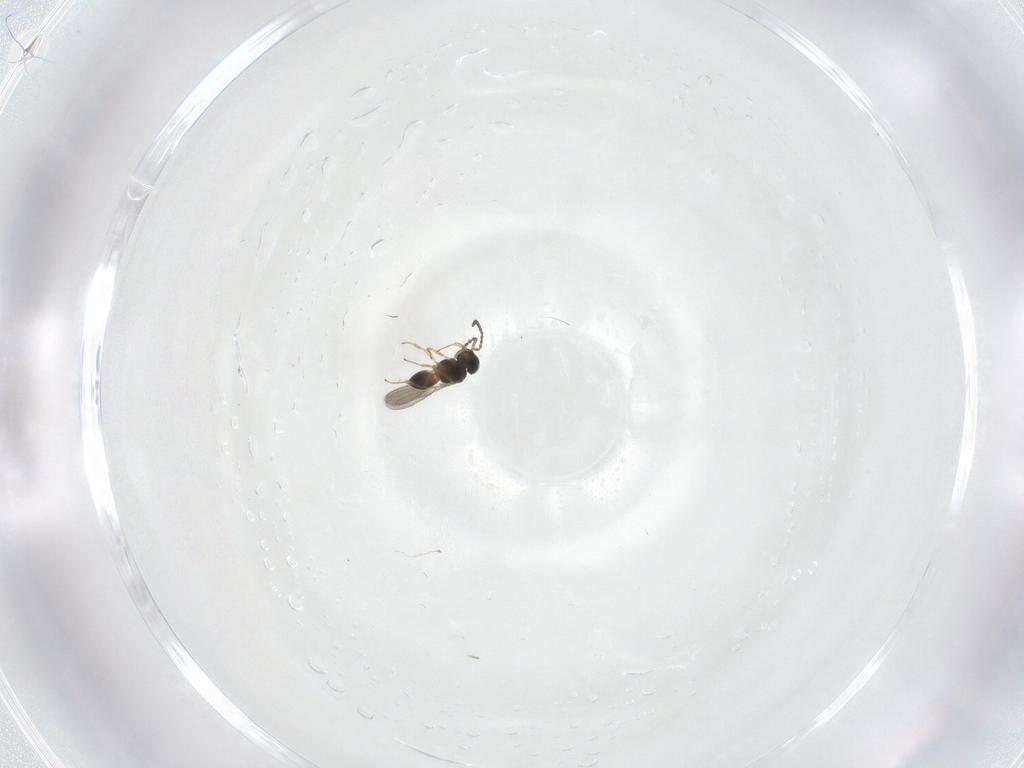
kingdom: Animalia
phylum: Arthropoda
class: Insecta
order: Hymenoptera
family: Scelionidae
